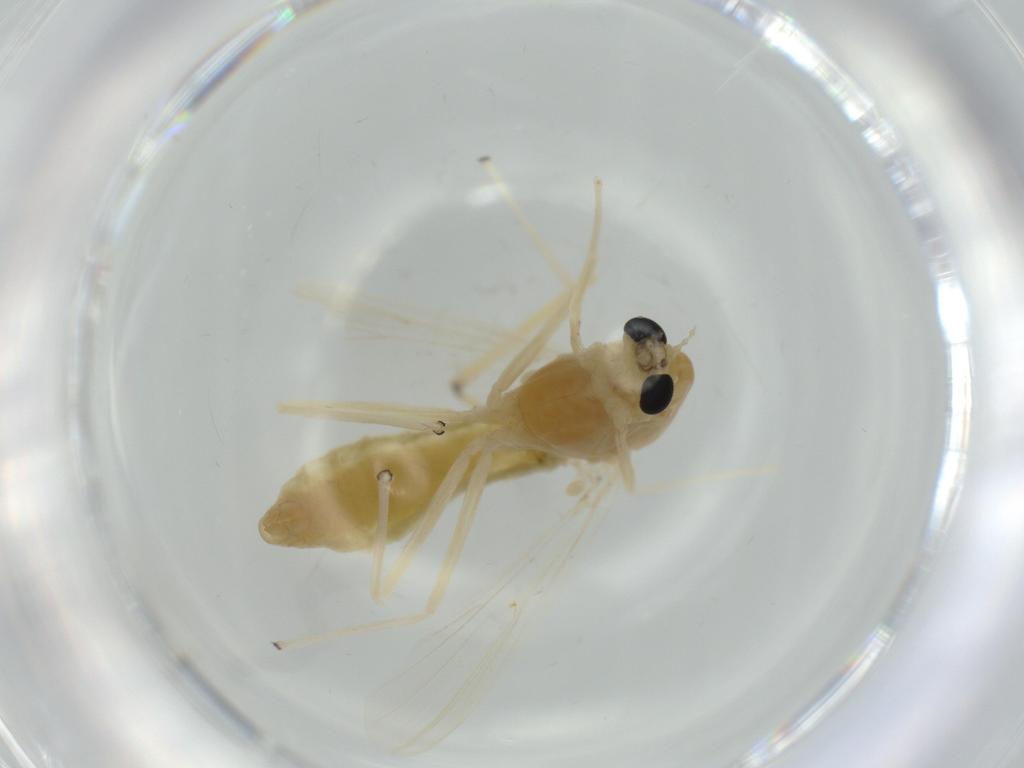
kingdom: Animalia
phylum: Arthropoda
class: Insecta
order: Diptera
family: Chironomidae
